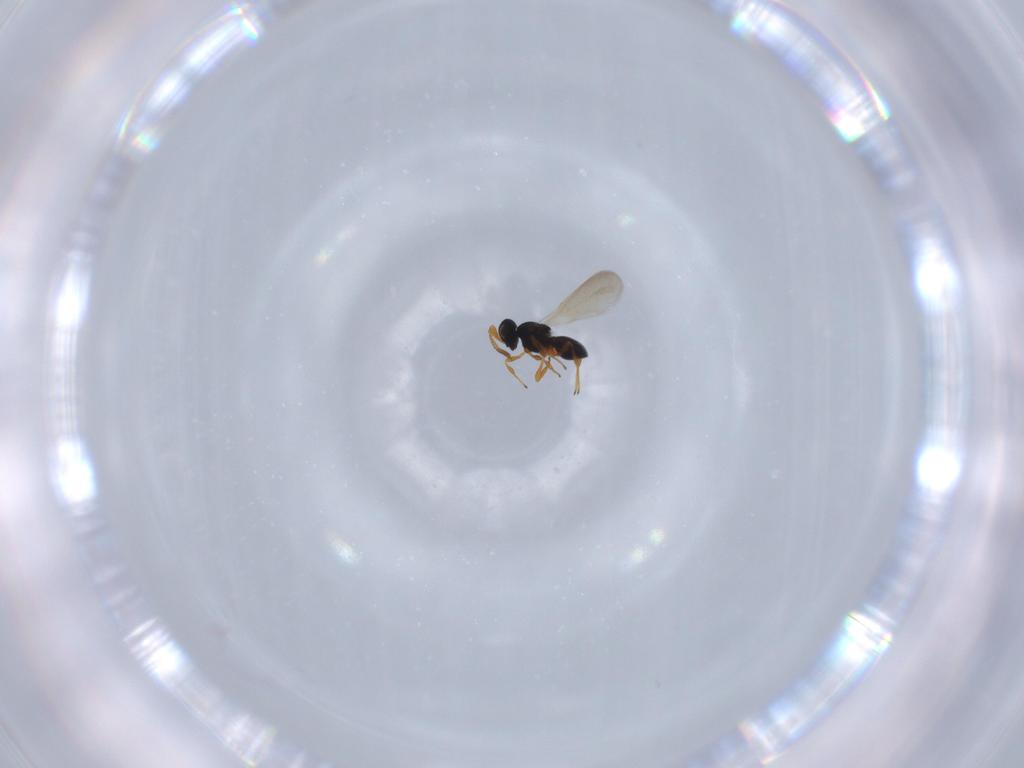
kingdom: Animalia
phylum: Arthropoda
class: Insecta
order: Hymenoptera
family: Platygastridae
